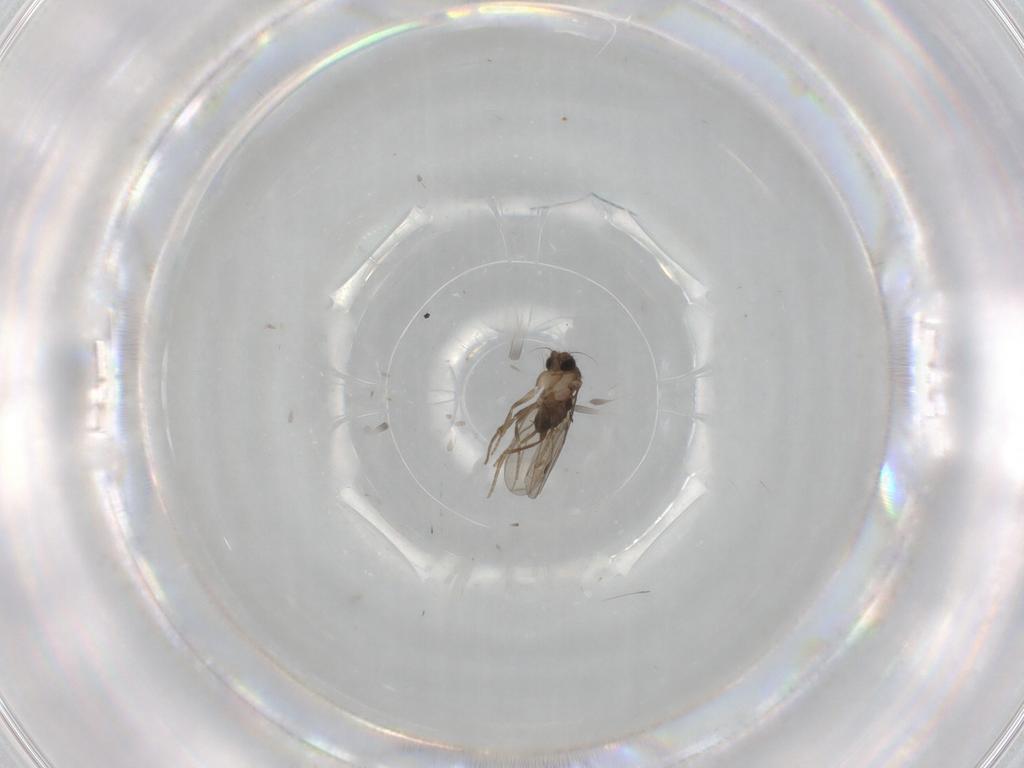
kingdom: Animalia
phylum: Arthropoda
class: Insecta
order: Diptera
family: Phoridae
